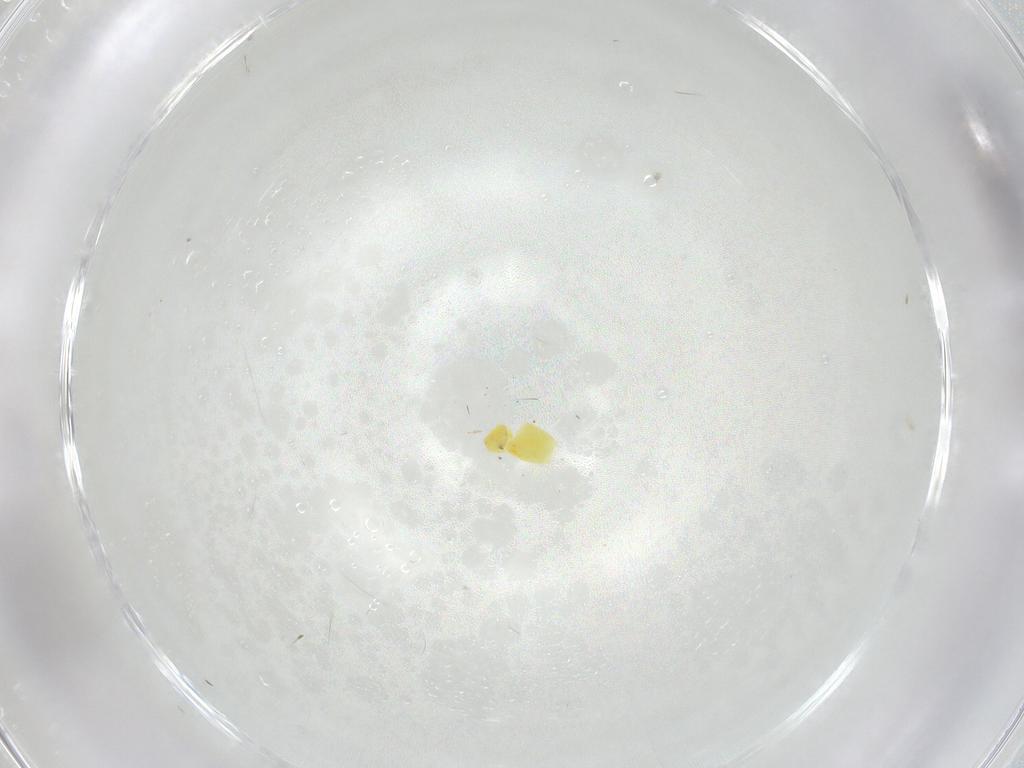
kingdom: Animalia
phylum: Arthropoda
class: Insecta
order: Hemiptera
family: Aleyrodidae
